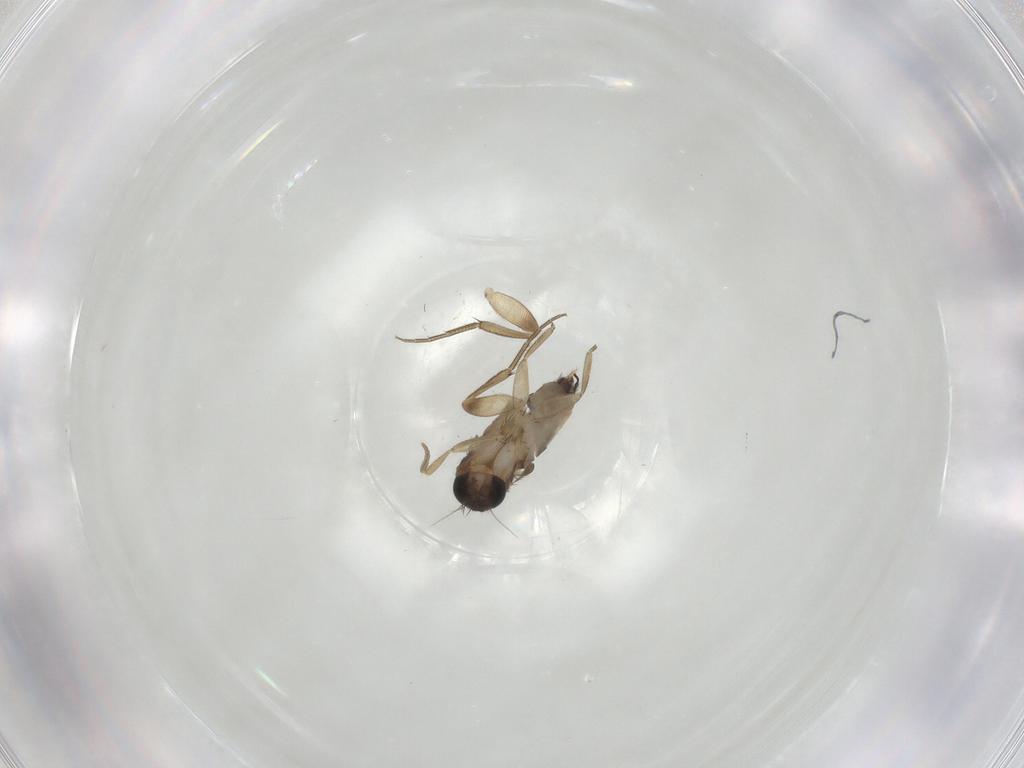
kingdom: Animalia
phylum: Arthropoda
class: Insecta
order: Diptera
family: Phoridae
